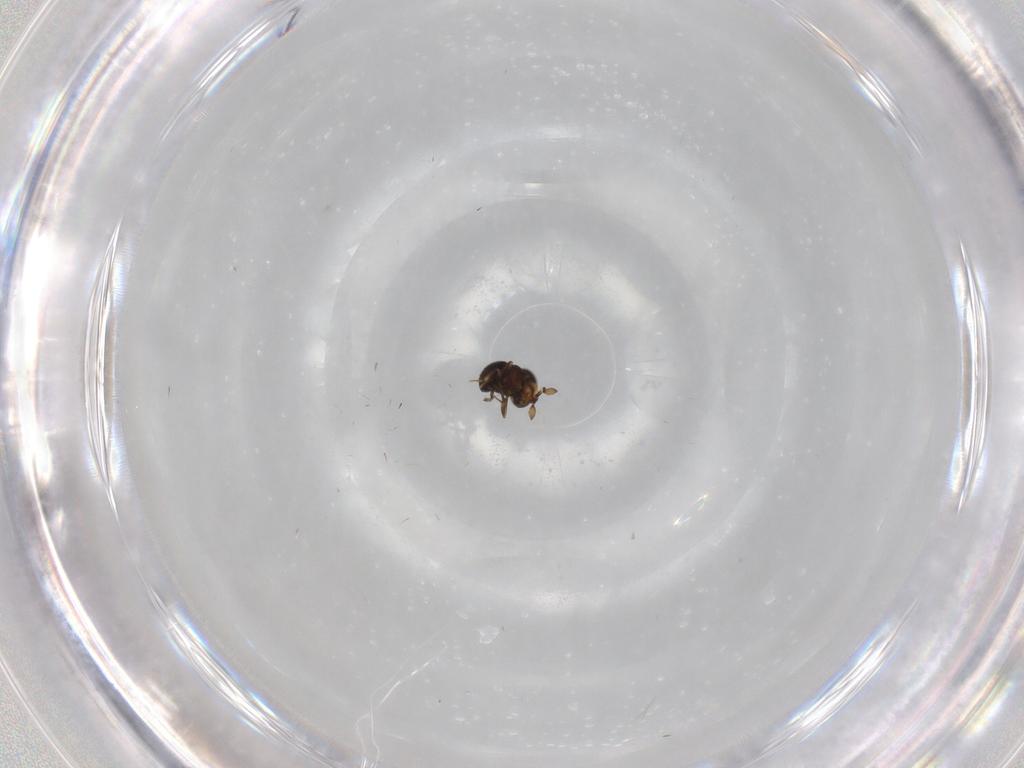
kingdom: Animalia
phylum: Arthropoda
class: Insecta
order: Hymenoptera
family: Scelionidae
